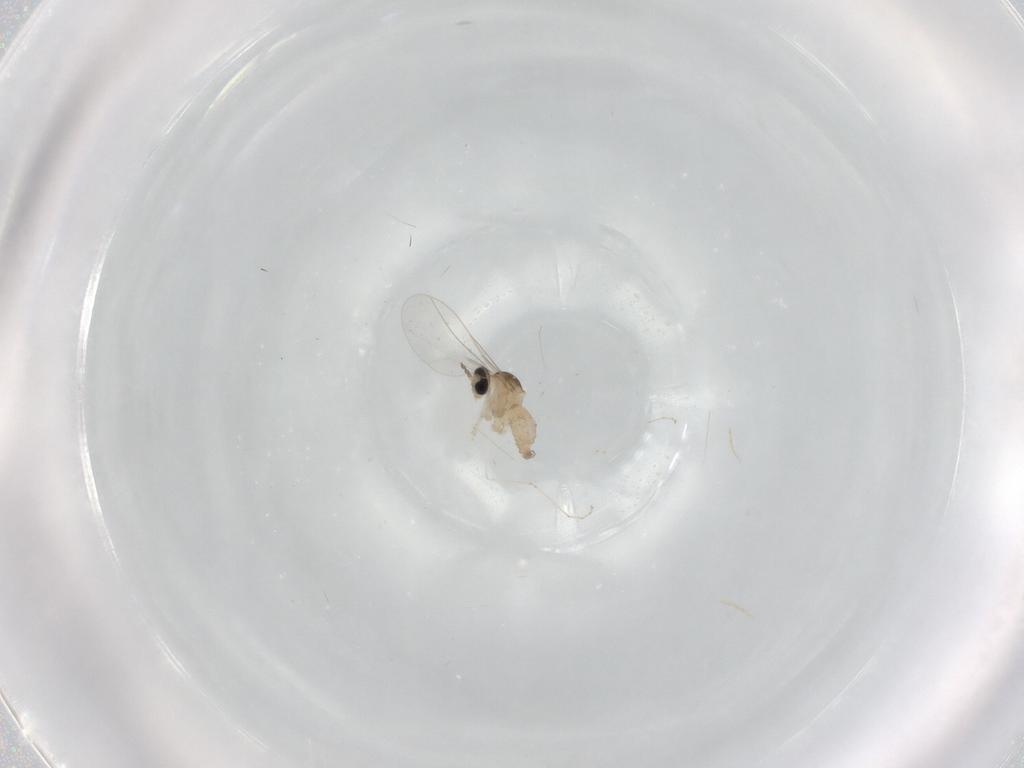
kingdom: Animalia
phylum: Arthropoda
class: Insecta
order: Diptera
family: Cecidomyiidae
